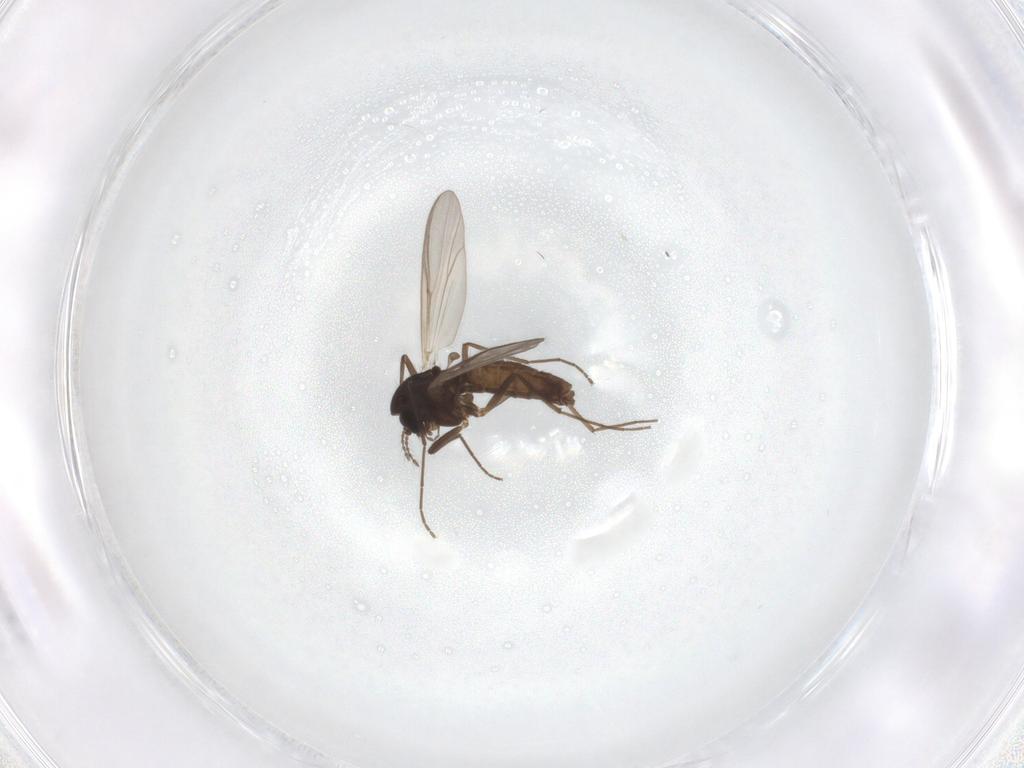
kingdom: Animalia
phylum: Arthropoda
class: Insecta
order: Diptera
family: Chironomidae
